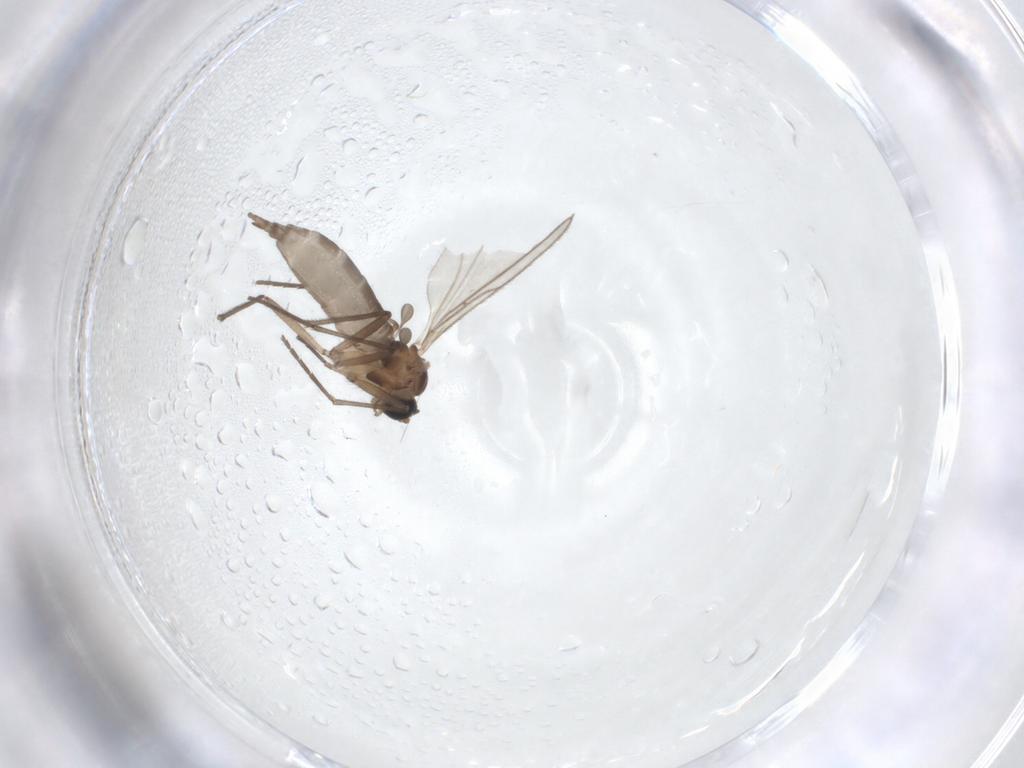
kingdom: Animalia
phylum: Arthropoda
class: Insecta
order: Diptera
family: Sciaridae
